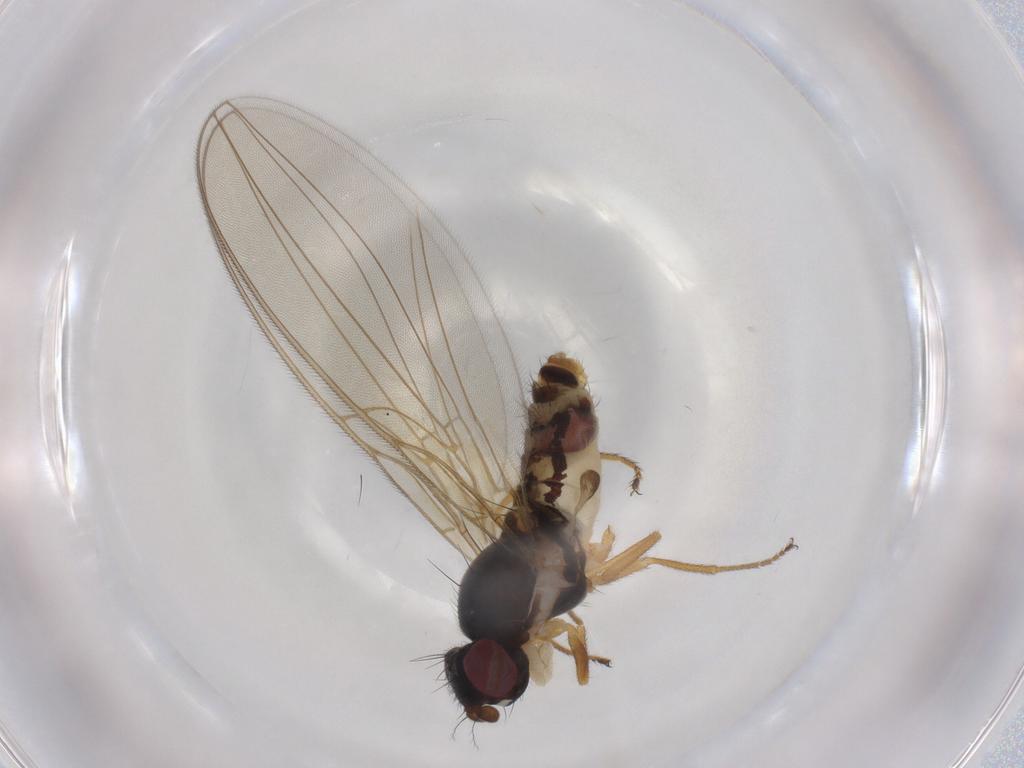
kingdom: Animalia
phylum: Arthropoda
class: Insecta
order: Diptera
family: Asteiidae
